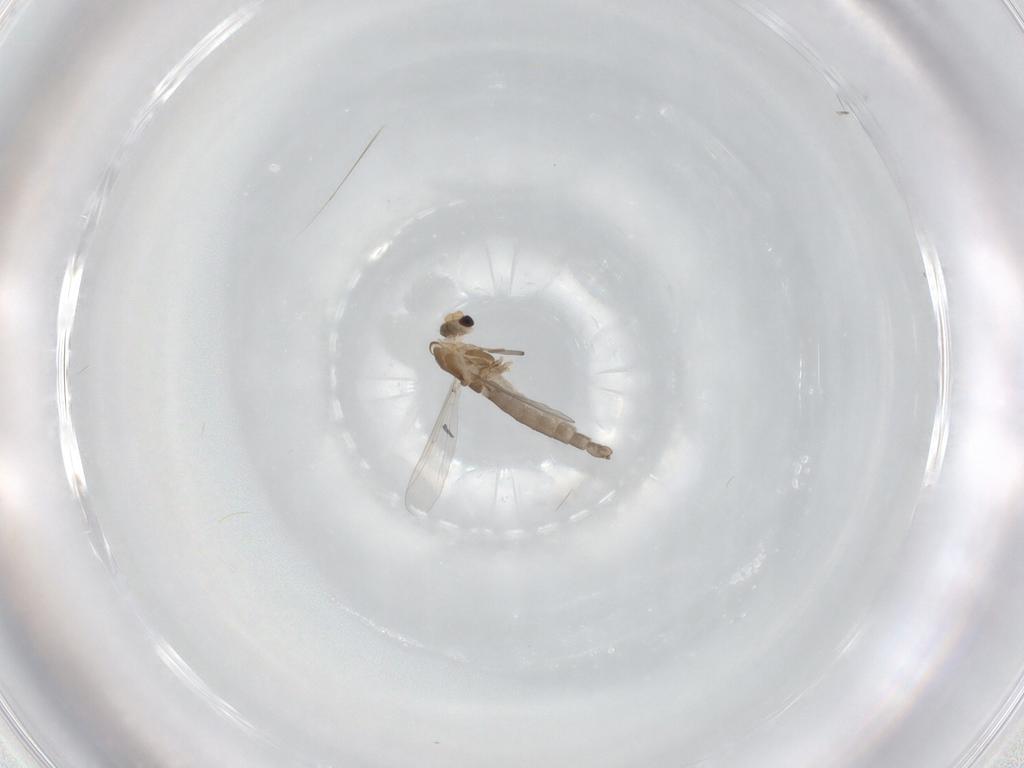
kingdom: Animalia
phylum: Arthropoda
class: Insecta
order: Diptera
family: Chironomidae
